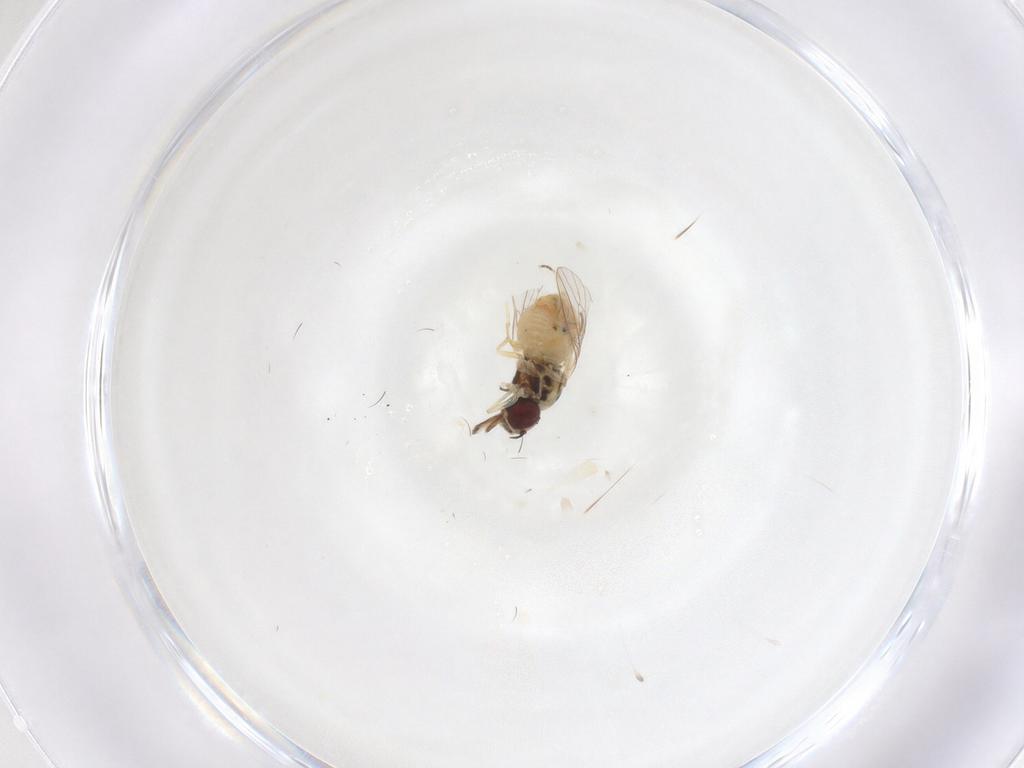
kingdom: Animalia
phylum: Arthropoda
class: Insecta
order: Diptera
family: Bombyliidae
